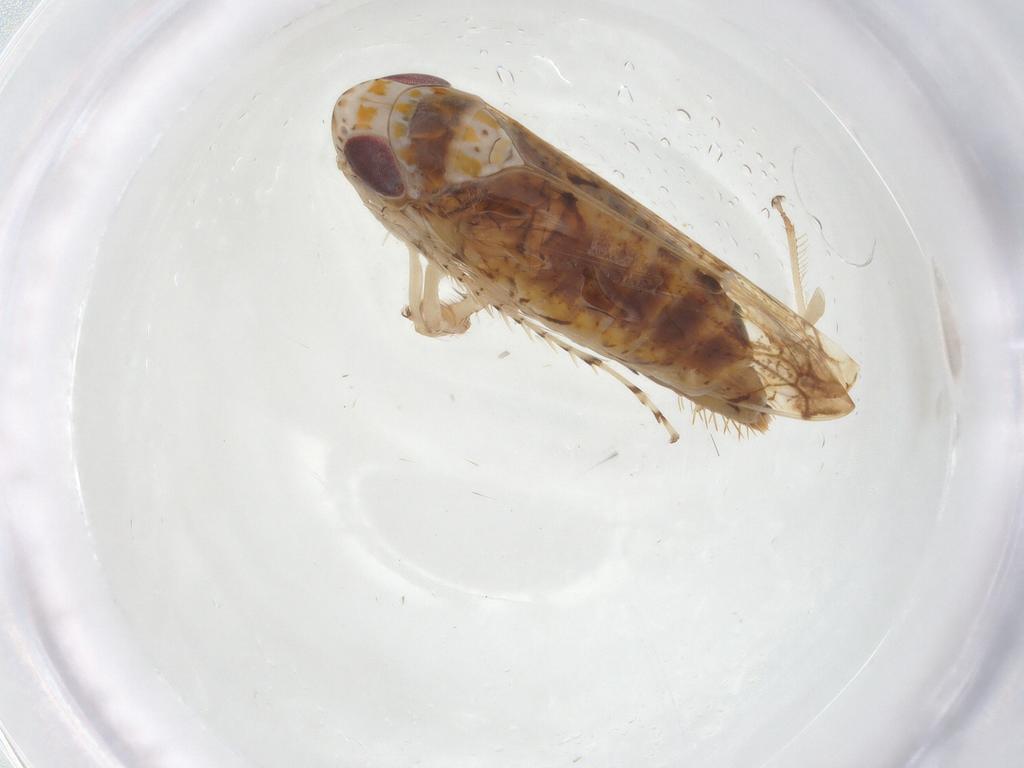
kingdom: Animalia
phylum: Arthropoda
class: Insecta
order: Hemiptera
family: Cicadellidae
